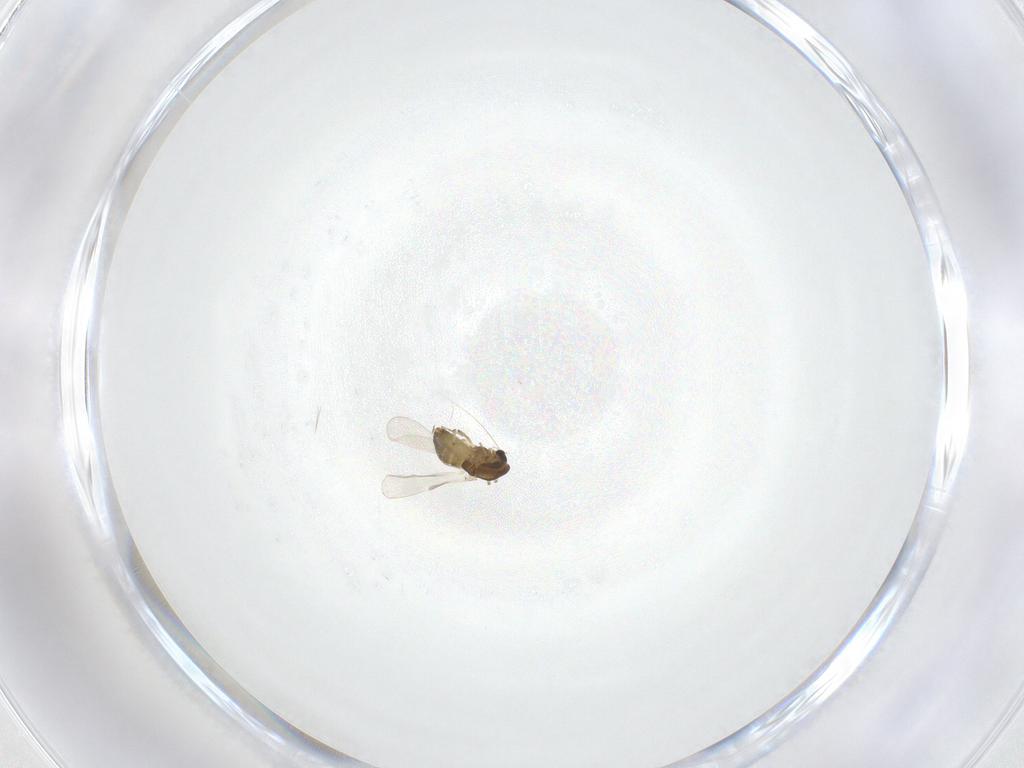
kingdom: Animalia
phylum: Arthropoda
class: Insecta
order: Diptera
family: Chironomidae
